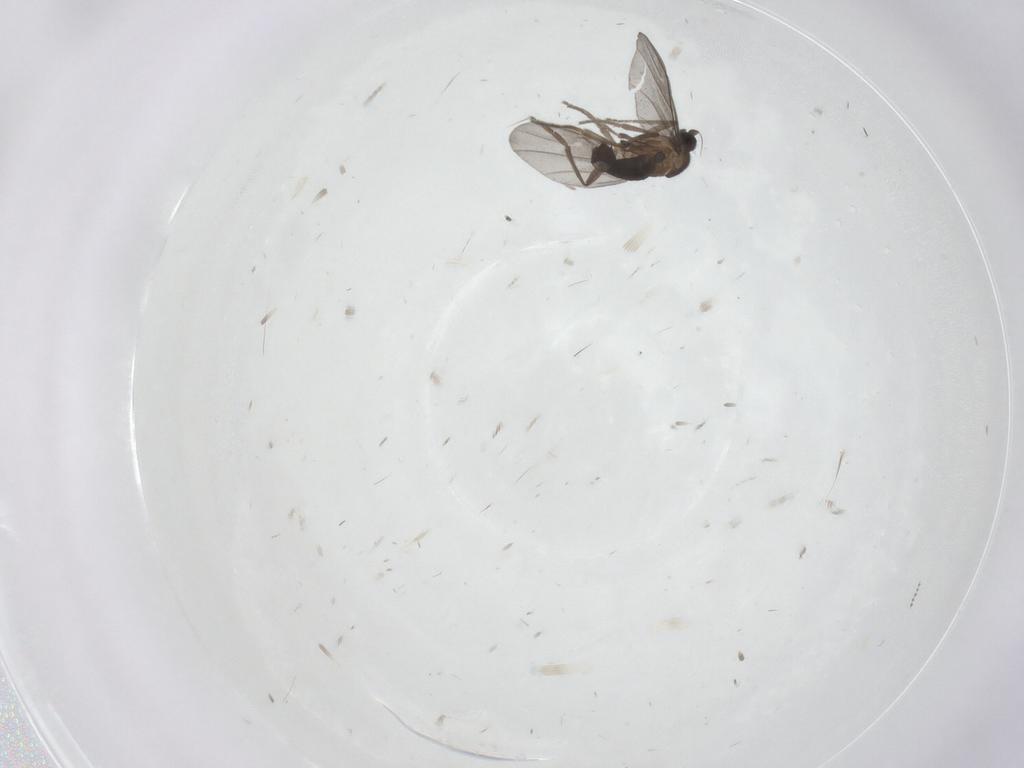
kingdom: Animalia
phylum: Arthropoda
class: Insecta
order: Diptera
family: Phoridae
